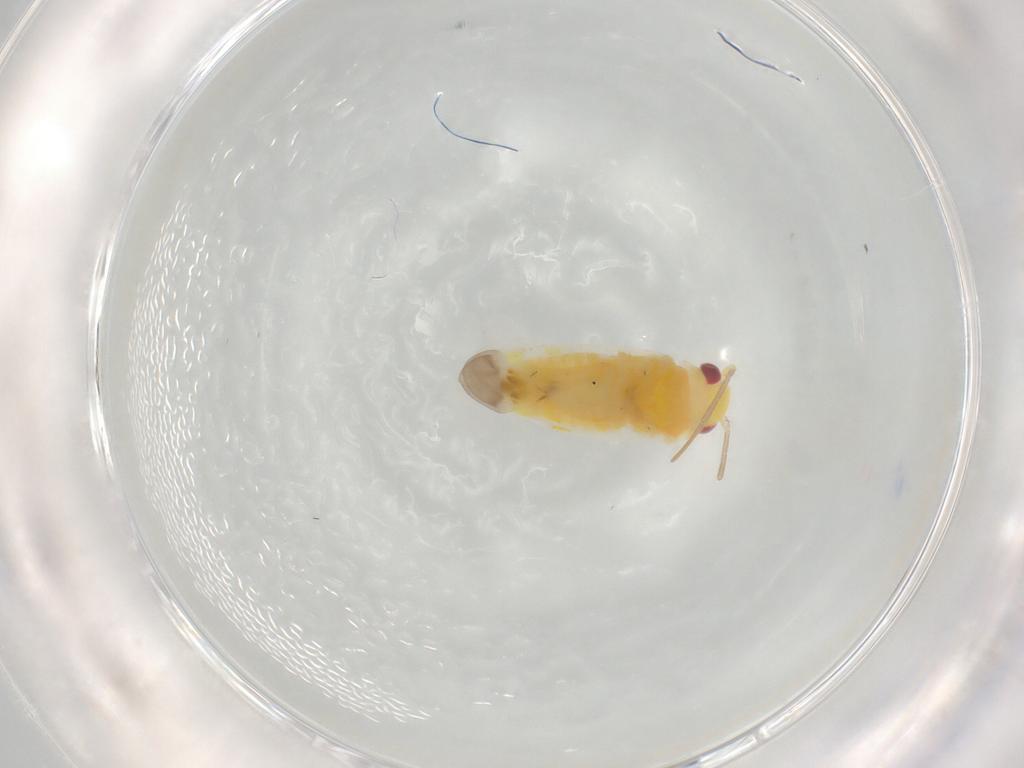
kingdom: Animalia
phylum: Arthropoda
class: Insecta
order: Hemiptera
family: Miridae
